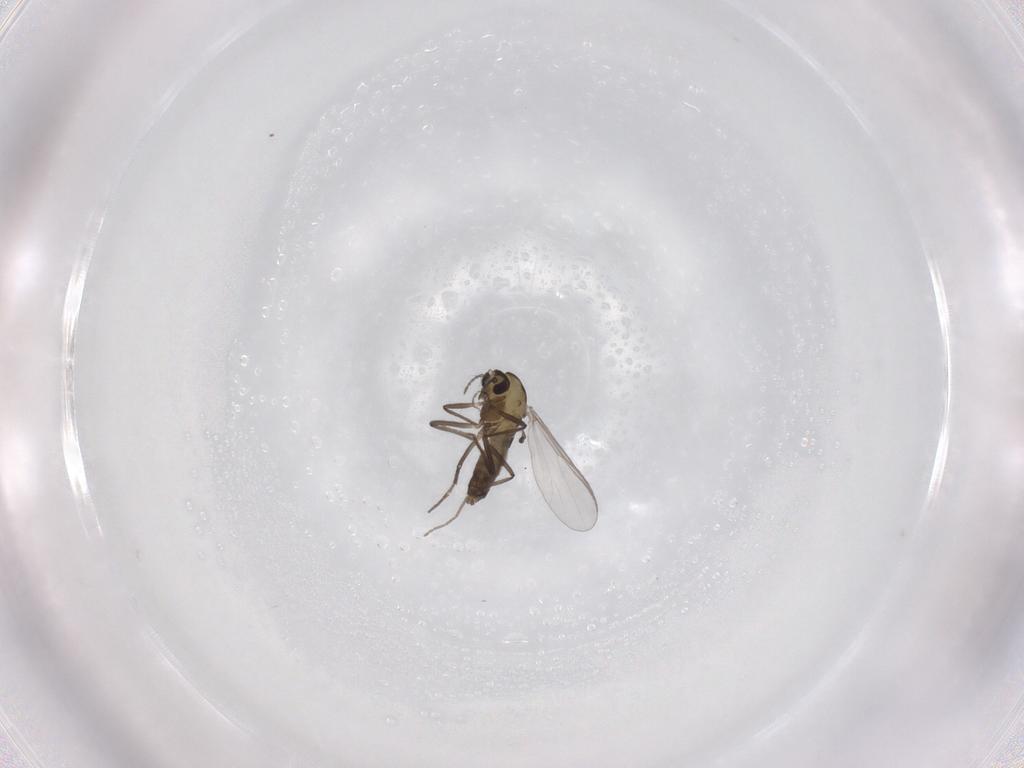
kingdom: Animalia
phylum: Arthropoda
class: Insecta
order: Diptera
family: Chironomidae
